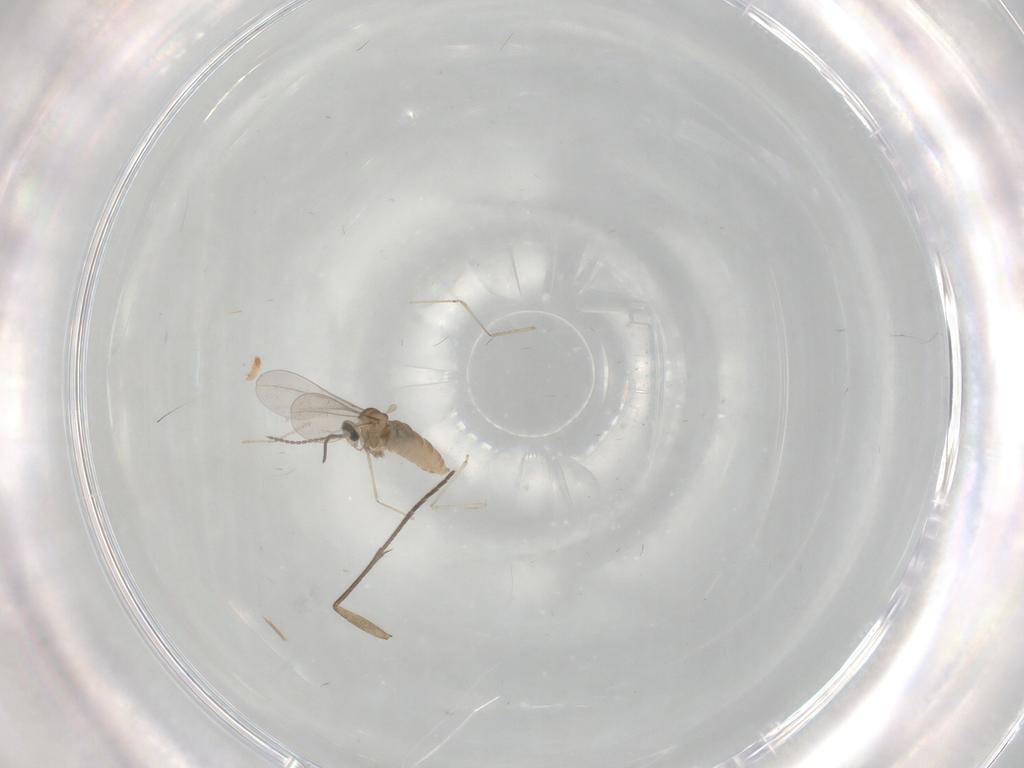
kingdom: Animalia
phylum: Arthropoda
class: Insecta
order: Diptera
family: Cecidomyiidae
